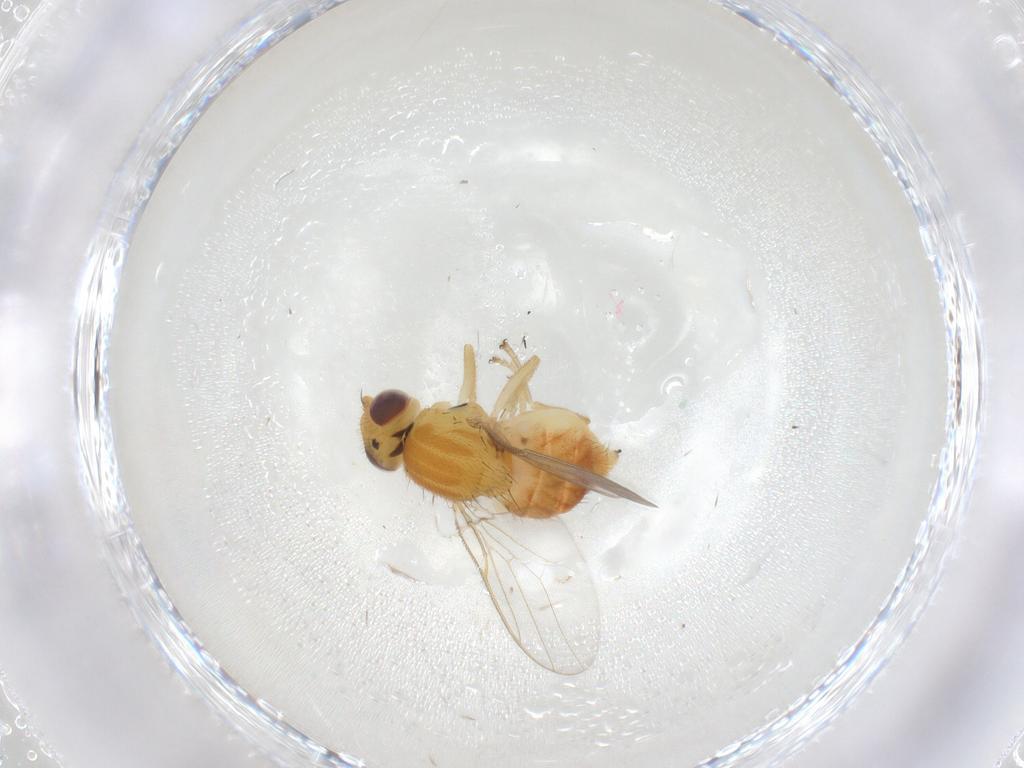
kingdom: Animalia
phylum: Arthropoda
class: Insecta
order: Diptera
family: Chloropidae
